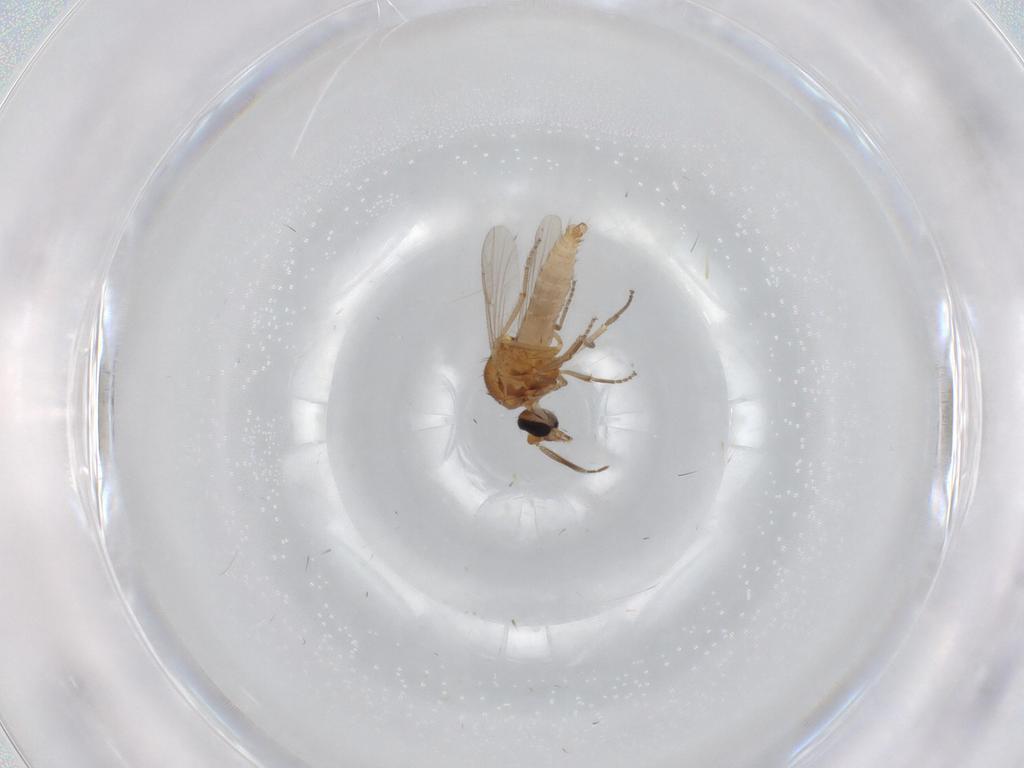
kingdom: Animalia
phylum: Arthropoda
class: Insecta
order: Diptera
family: Ceratopogonidae
